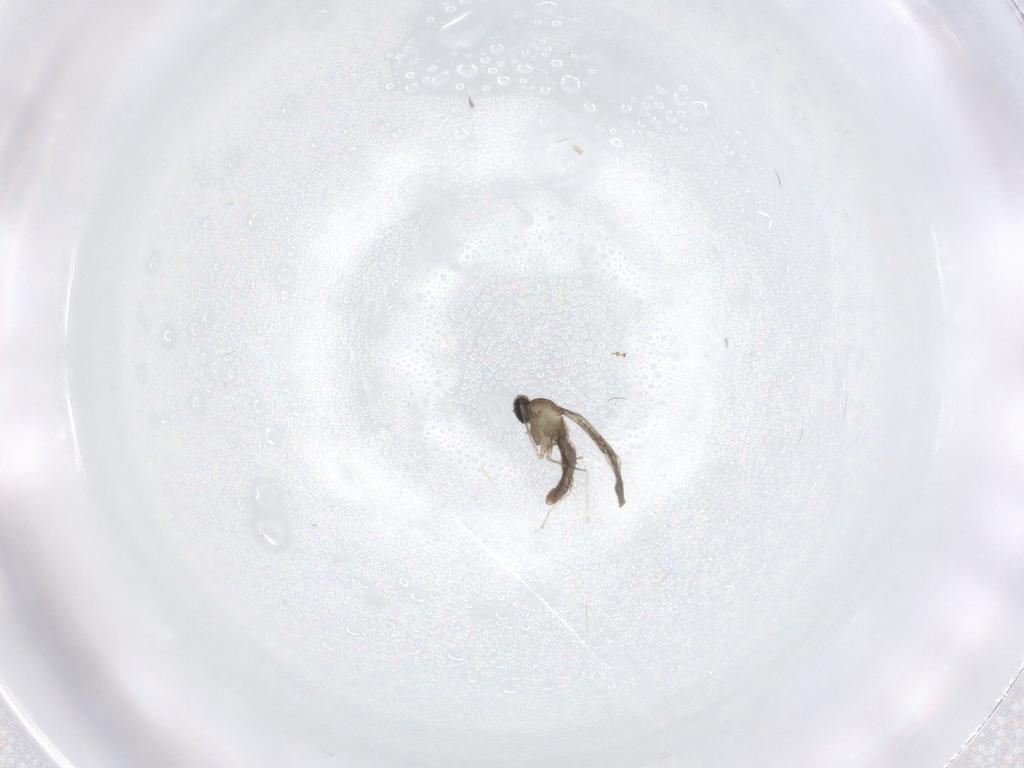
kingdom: Animalia
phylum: Arthropoda
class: Insecta
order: Diptera
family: Cecidomyiidae
